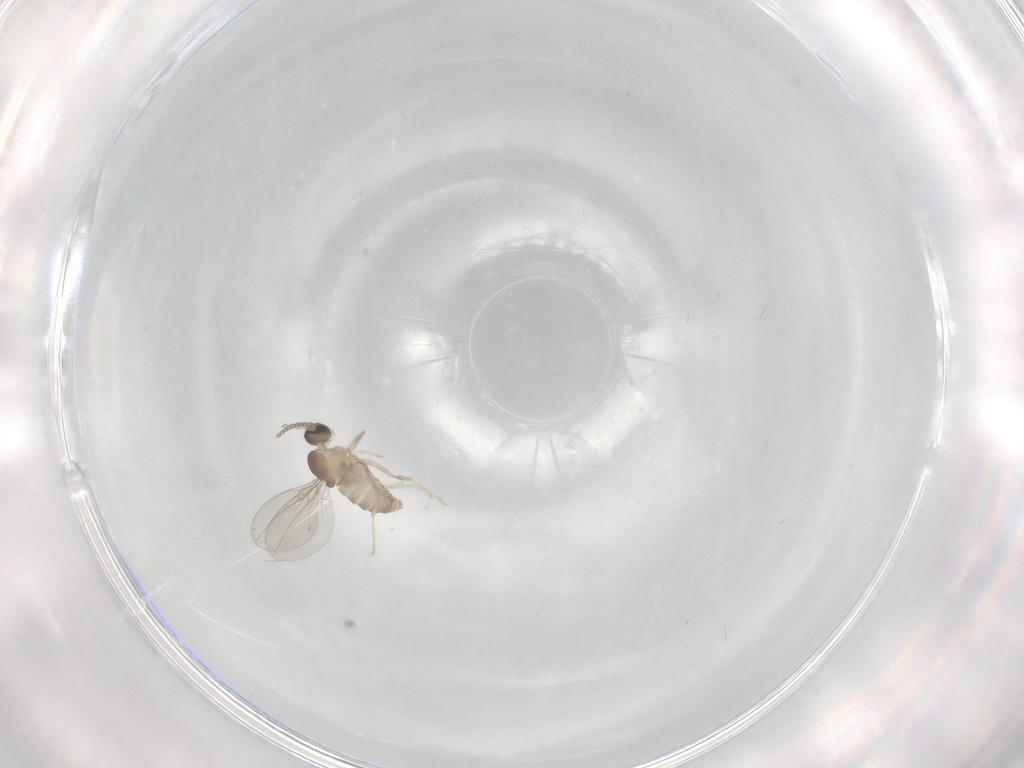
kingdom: Animalia
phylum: Arthropoda
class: Insecta
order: Diptera
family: Cecidomyiidae
